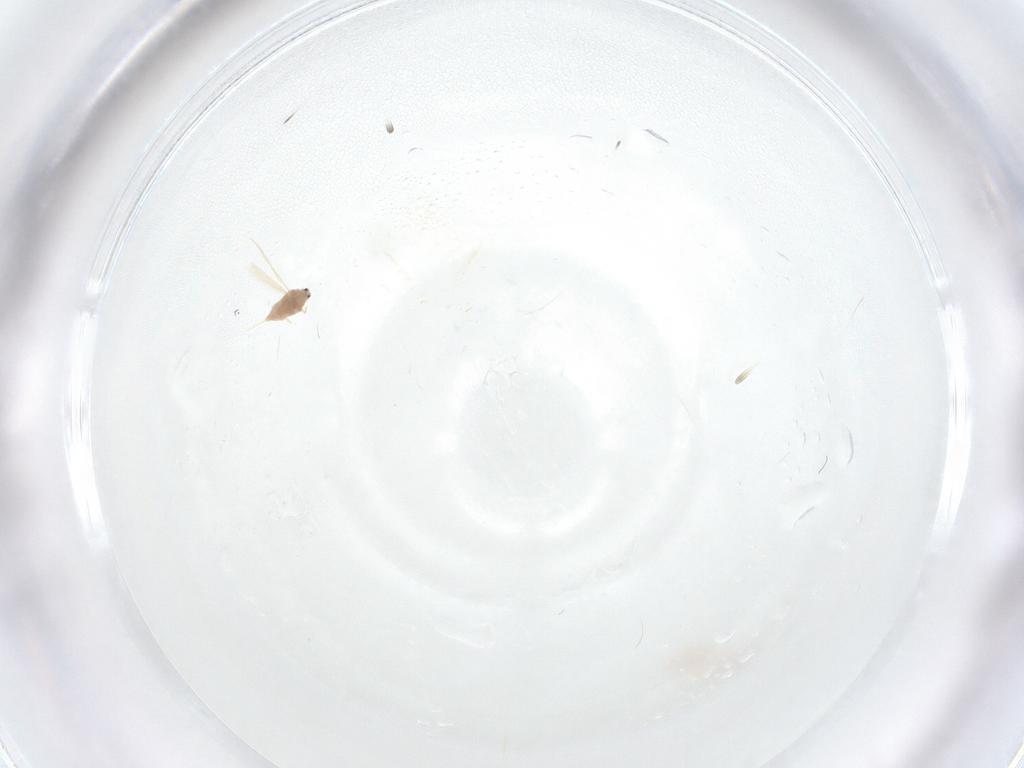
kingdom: Animalia
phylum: Arthropoda
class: Insecta
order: Hemiptera
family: Diaspididae
